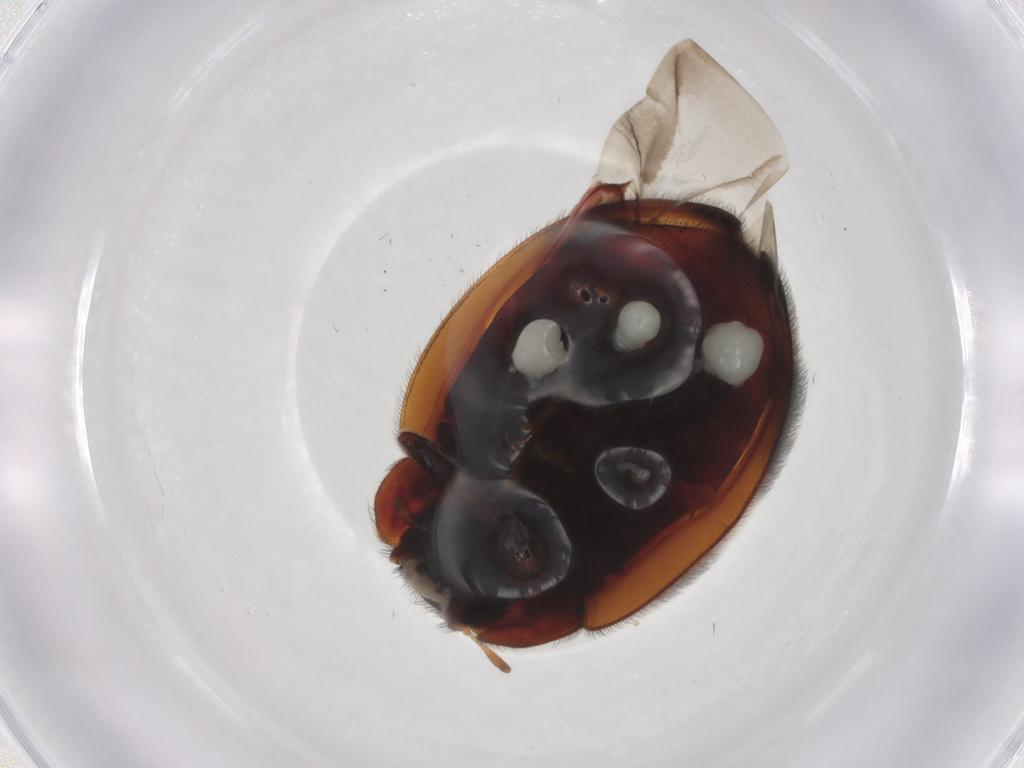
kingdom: Animalia
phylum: Arthropoda
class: Insecta
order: Coleoptera
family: Coccinellidae
